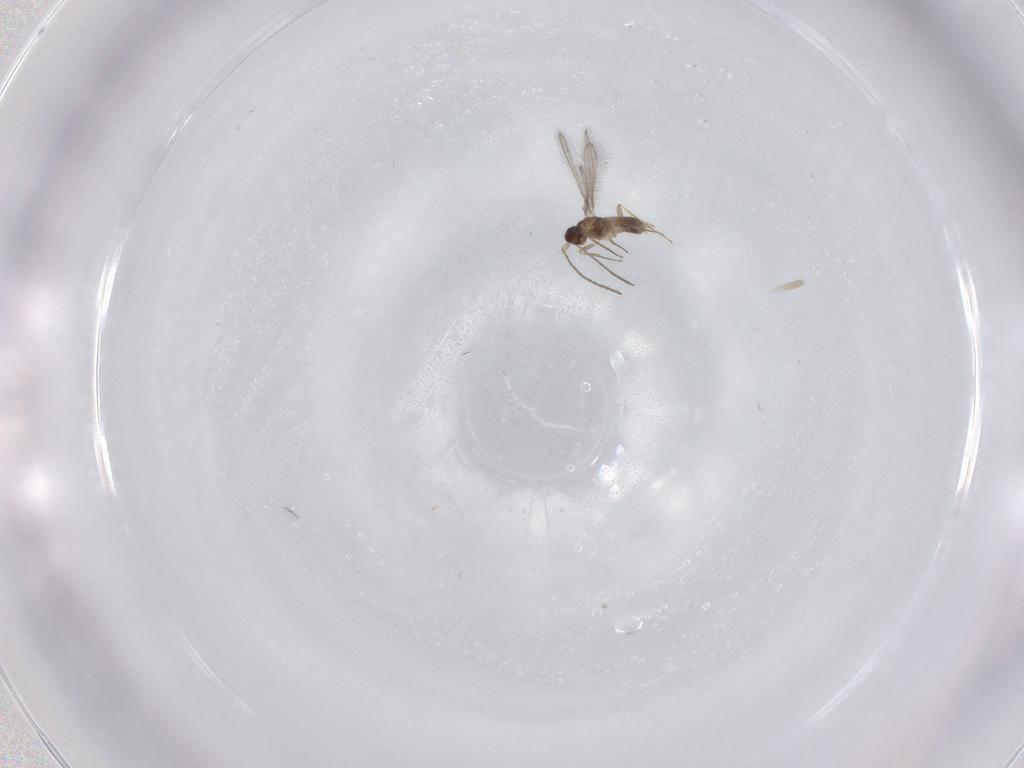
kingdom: Animalia
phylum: Arthropoda
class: Insecta
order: Hymenoptera
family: Mymaridae
